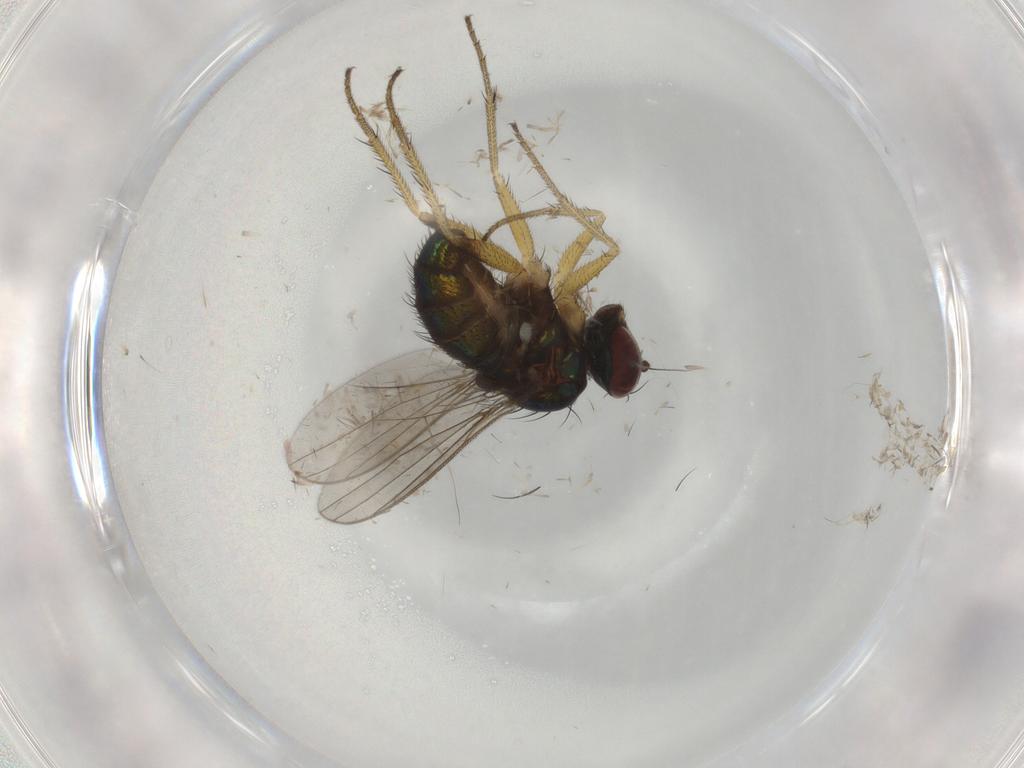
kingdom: Animalia
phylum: Arthropoda
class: Insecta
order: Diptera
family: Dolichopodidae
